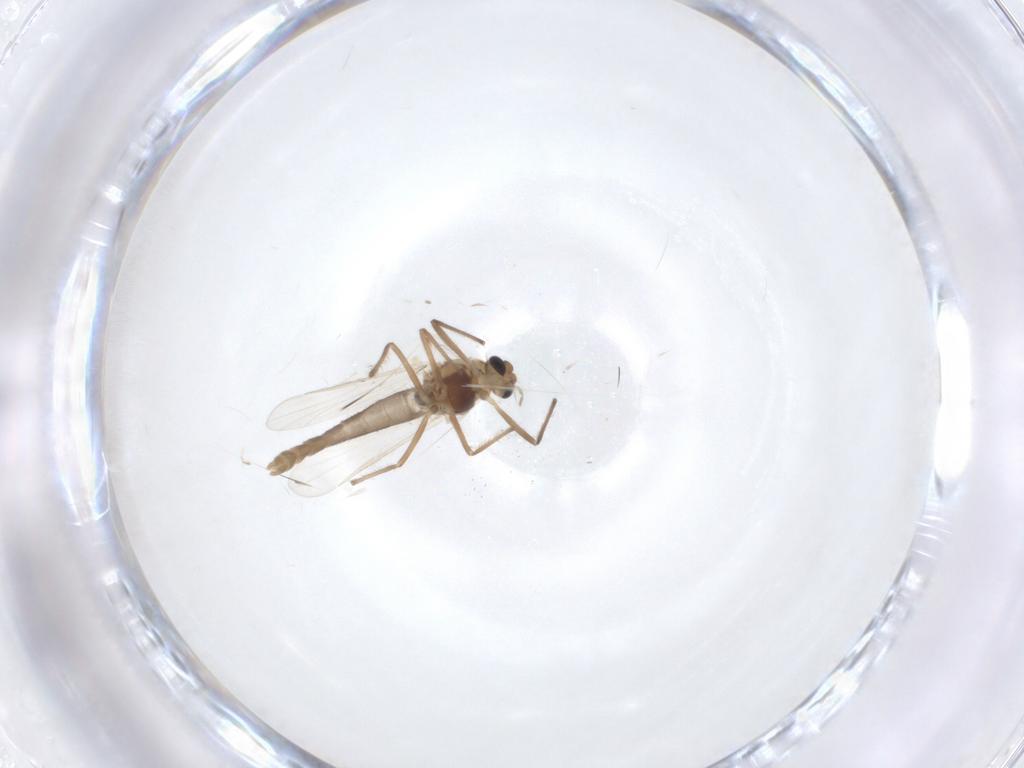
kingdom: Animalia
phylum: Arthropoda
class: Insecta
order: Diptera
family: Chironomidae
